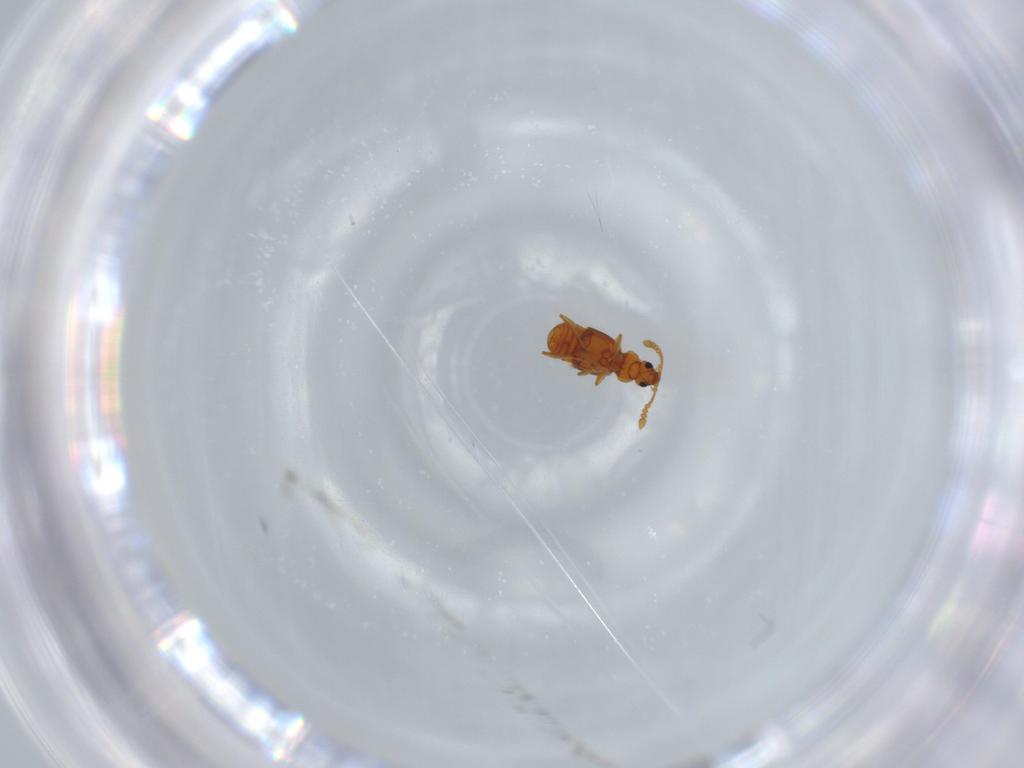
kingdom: Animalia
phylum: Arthropoda
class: Insecta
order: Coleoptera
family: Staphylinidae
